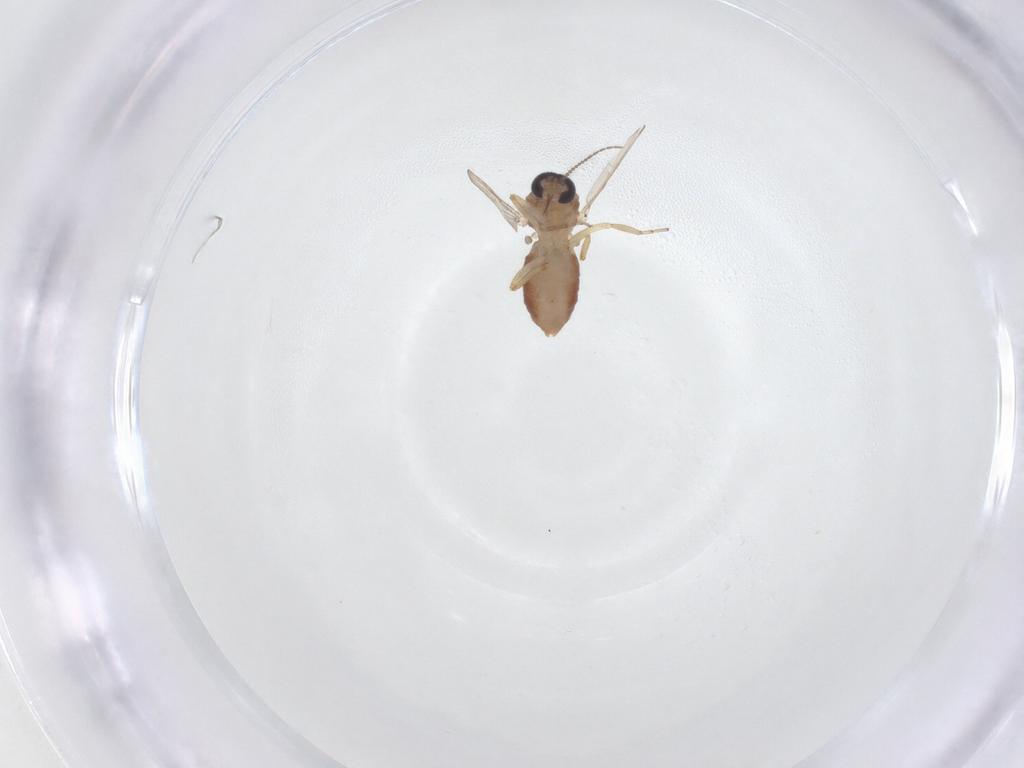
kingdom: Animalia
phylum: Arthropoda
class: Insecta
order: Diptera
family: Ceratopogonidae
